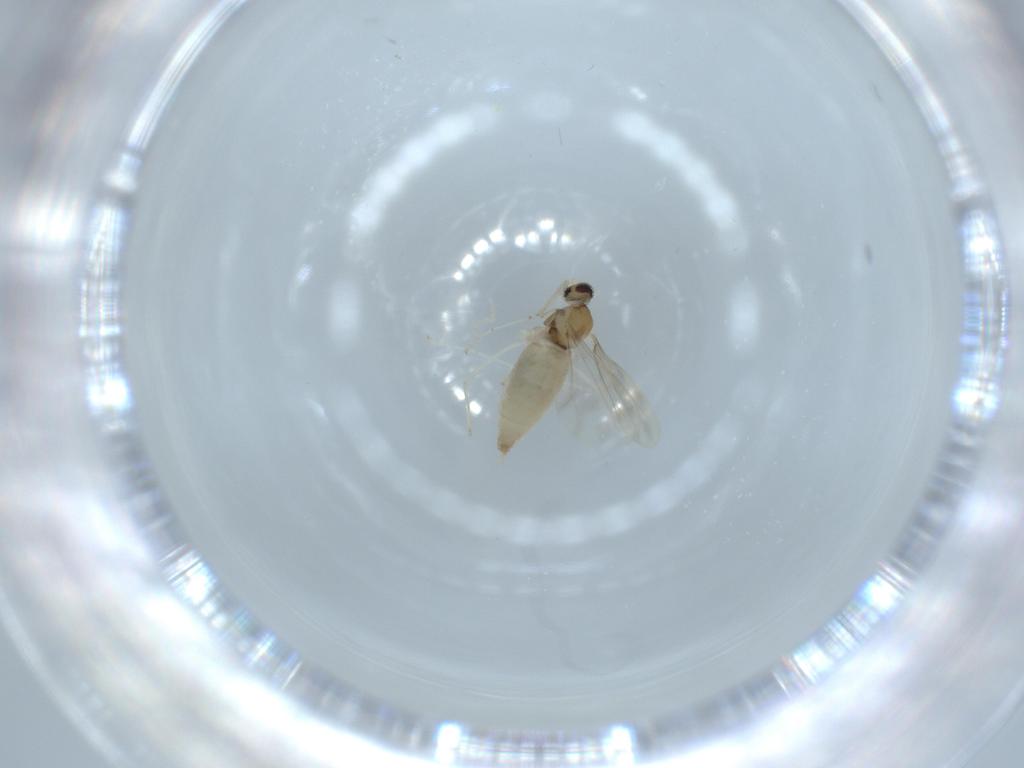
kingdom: Animalia
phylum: Arthropoda
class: Insecta
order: Diptera
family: Cecidomyiidae
